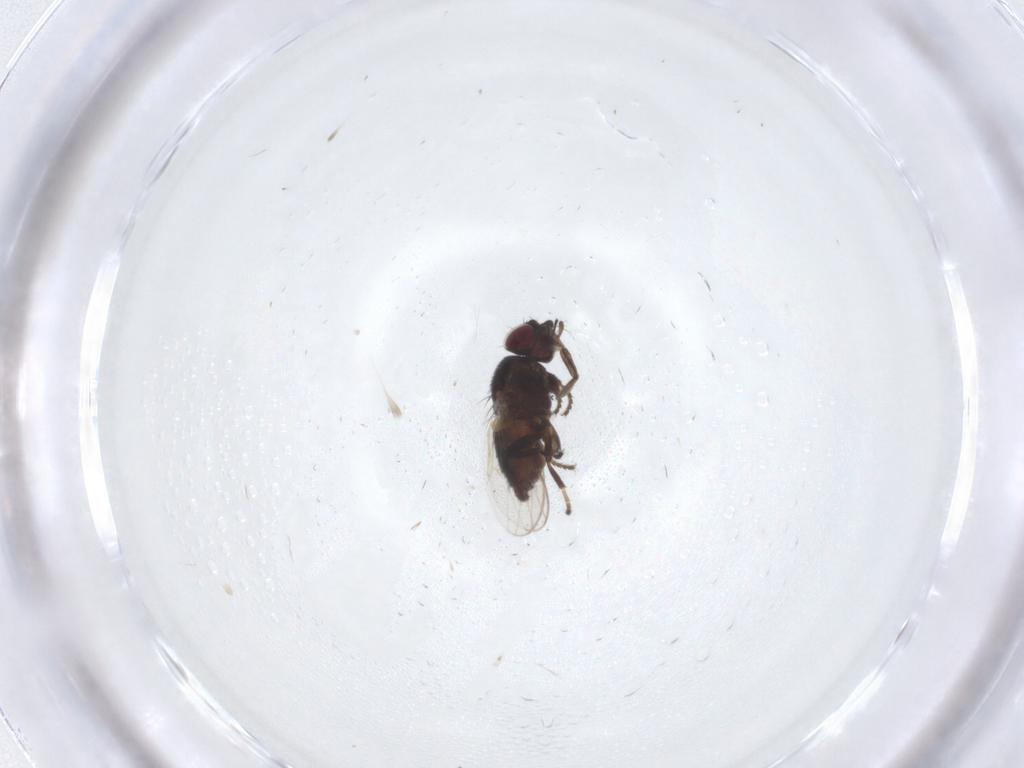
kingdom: Animalia
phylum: Arthropoda
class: Insecta
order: Diptera
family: Milichiidae
